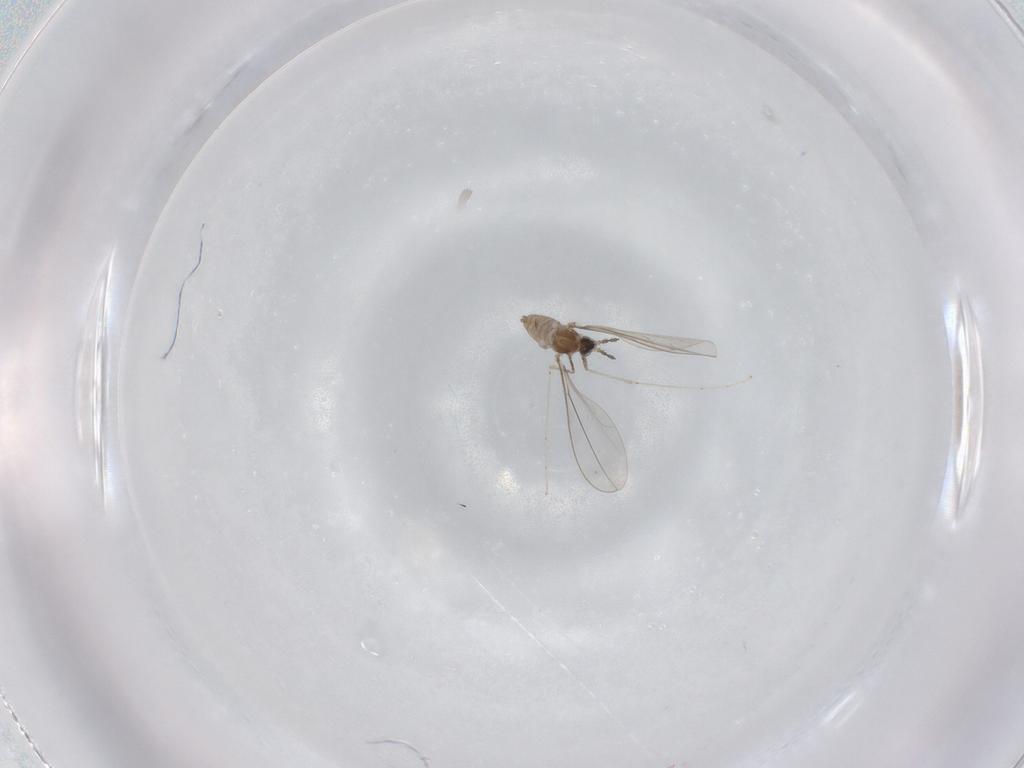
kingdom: Animalia
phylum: Arthropoda
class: Insecta
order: Diptera
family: Cecidomyiidae
